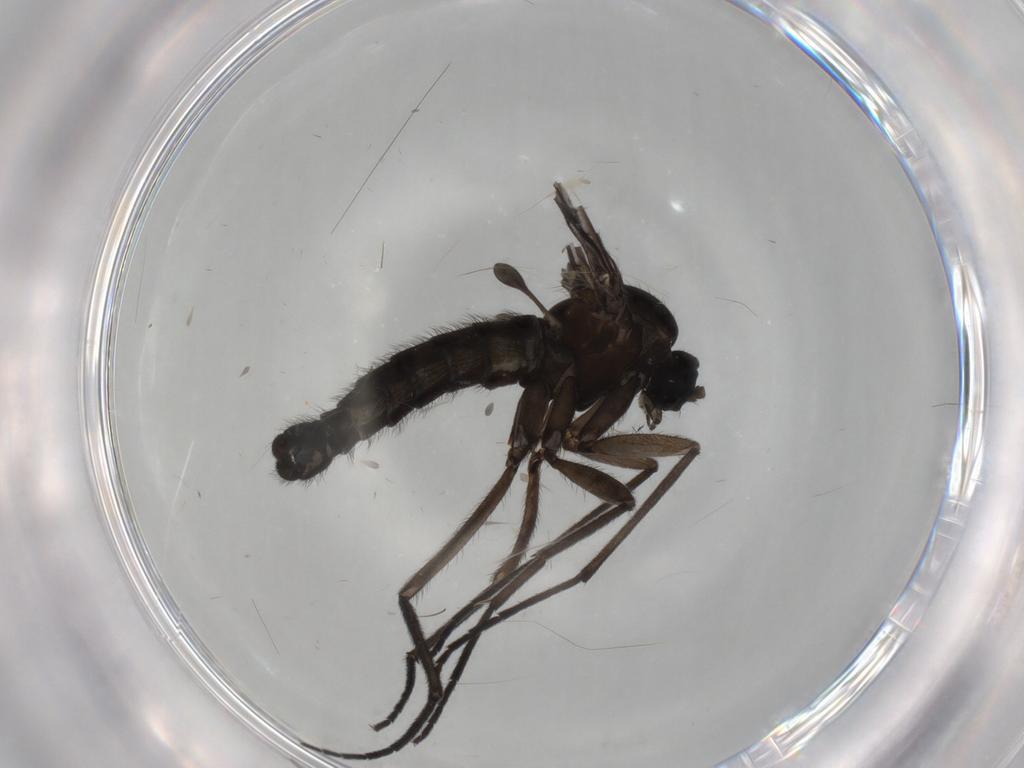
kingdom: Animalia
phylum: Arthropoda
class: Insecta
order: Diptera
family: Sciaridae
